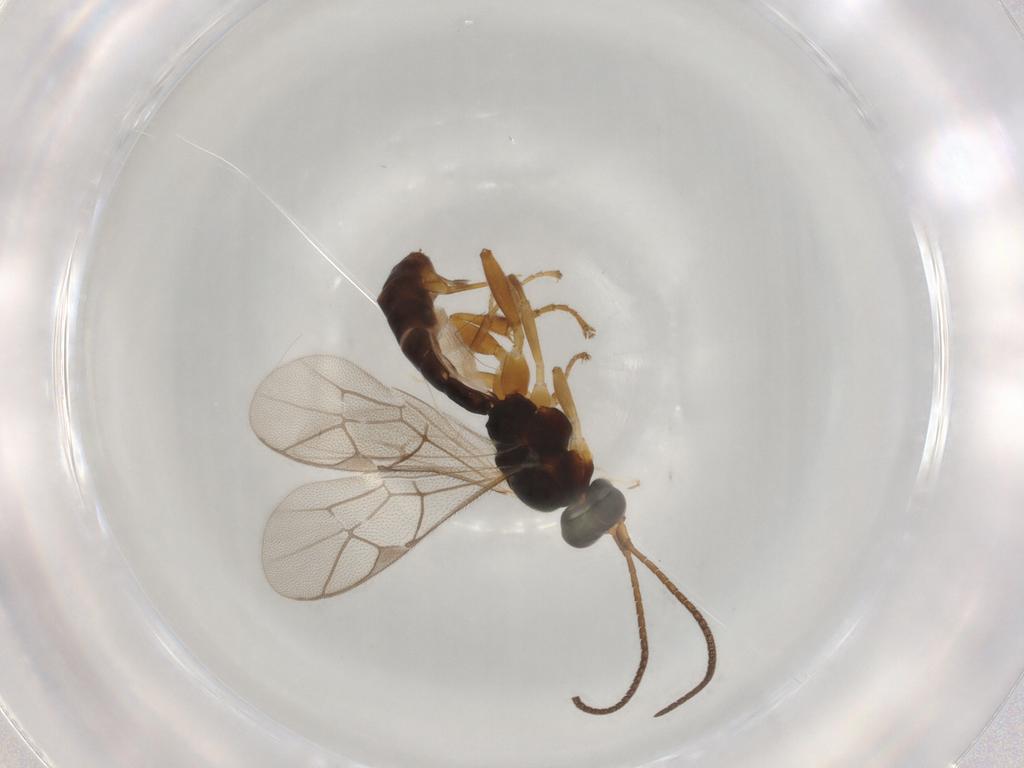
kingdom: Animalia
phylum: Arthropoda
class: Insecta
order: Hymenoptera
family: Ichneumonidae
